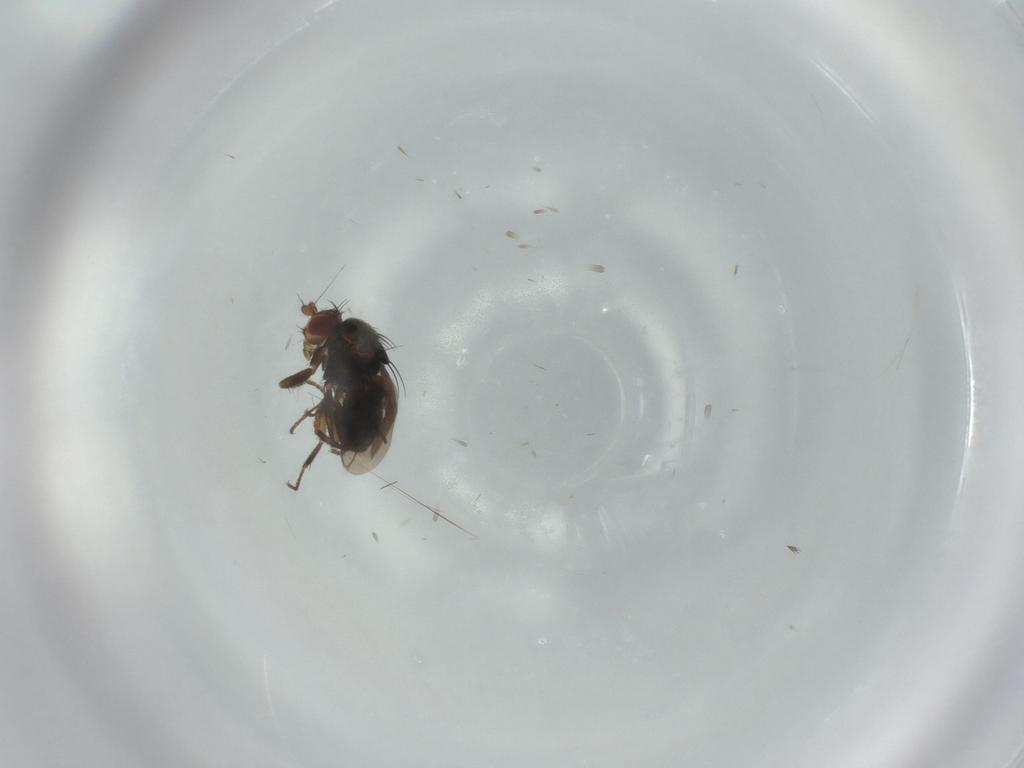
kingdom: Animalia
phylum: Arthropoda
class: Insecta
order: Diptera
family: Sphaeroceridae
